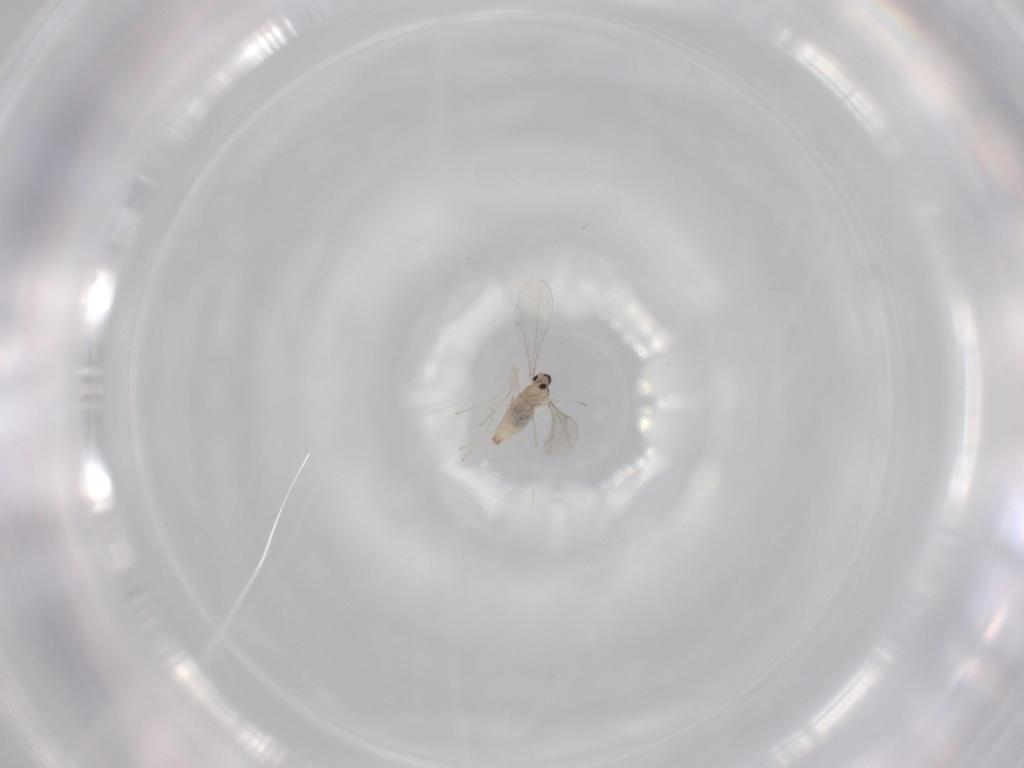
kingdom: Animalia
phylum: Arthropoda
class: Insecta
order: Diptera
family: Cecidomyiidae
